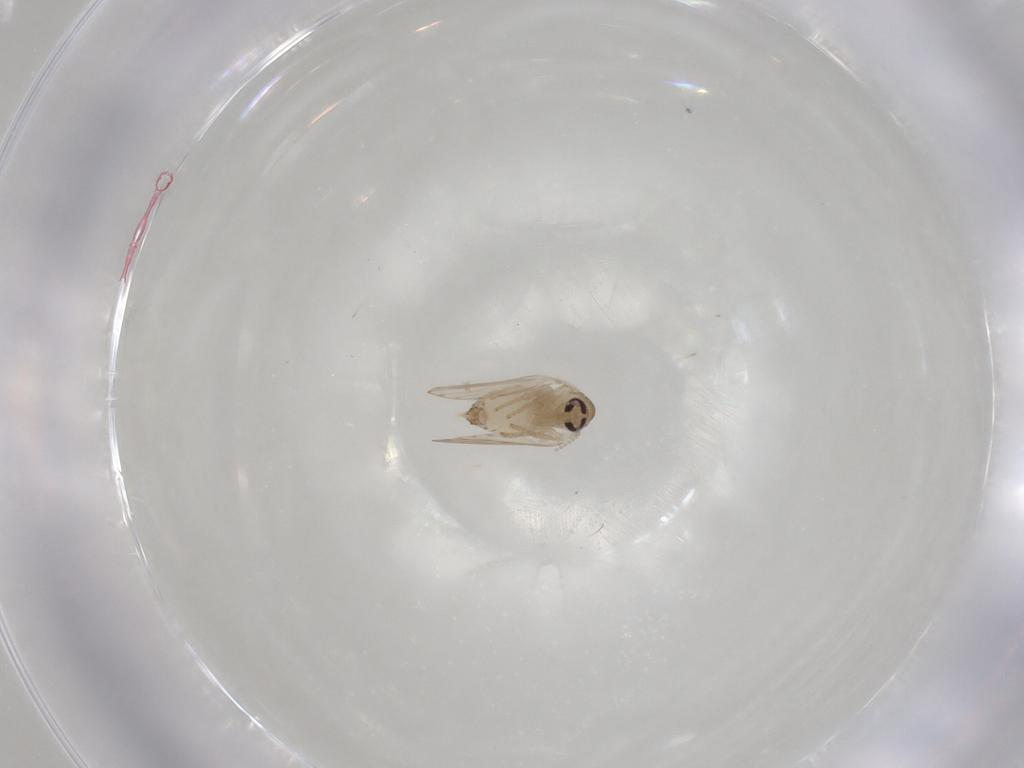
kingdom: Animalia
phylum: Arthropoda
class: Insecta
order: Diptera
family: Psychodidae
